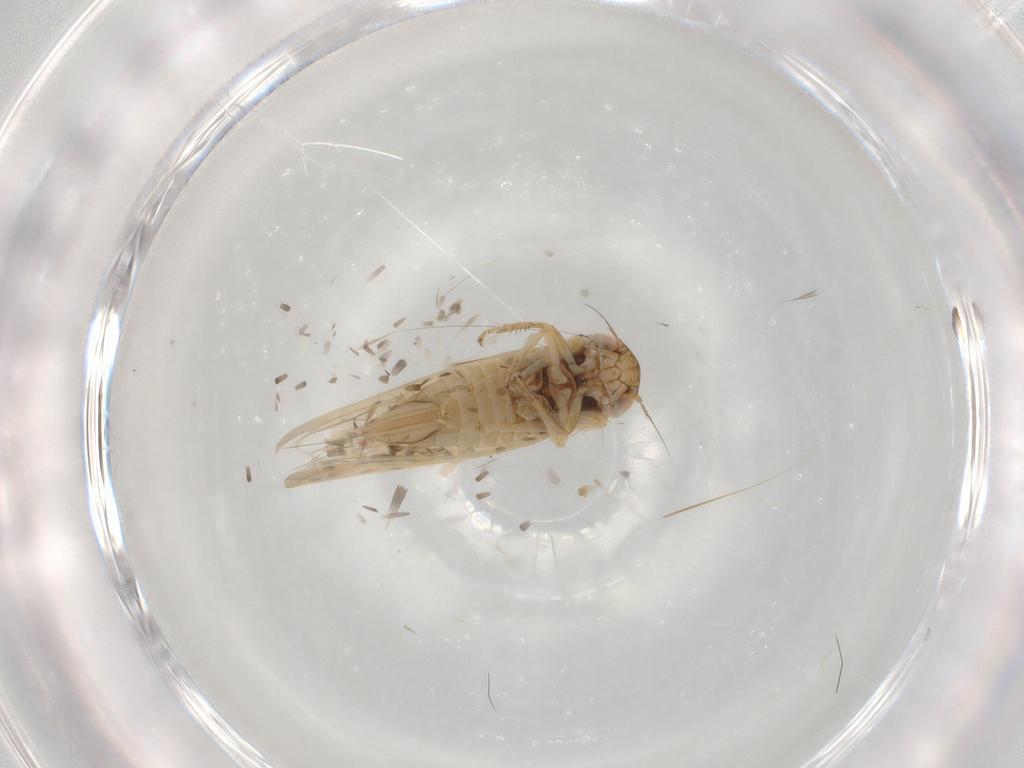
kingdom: Animalia
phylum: Arthropoda
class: Insecta
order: Hemiptera
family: Cicadellidae
